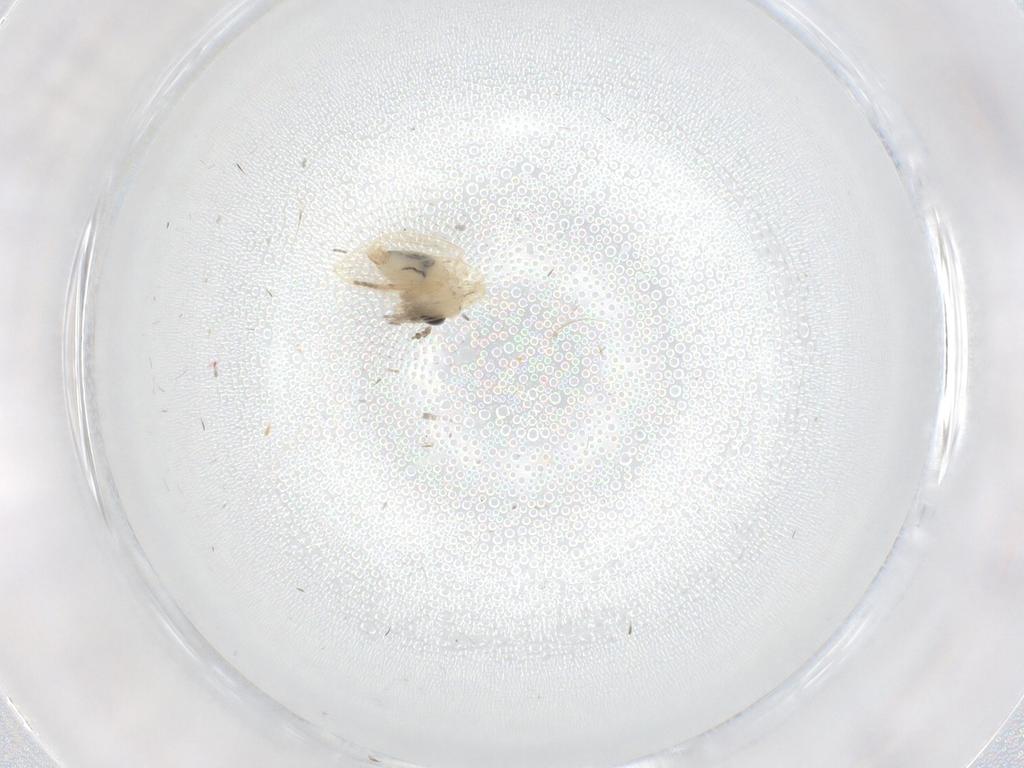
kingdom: Animalia
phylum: Arthropoda
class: Insecta
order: Diptera
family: Psychodidae
